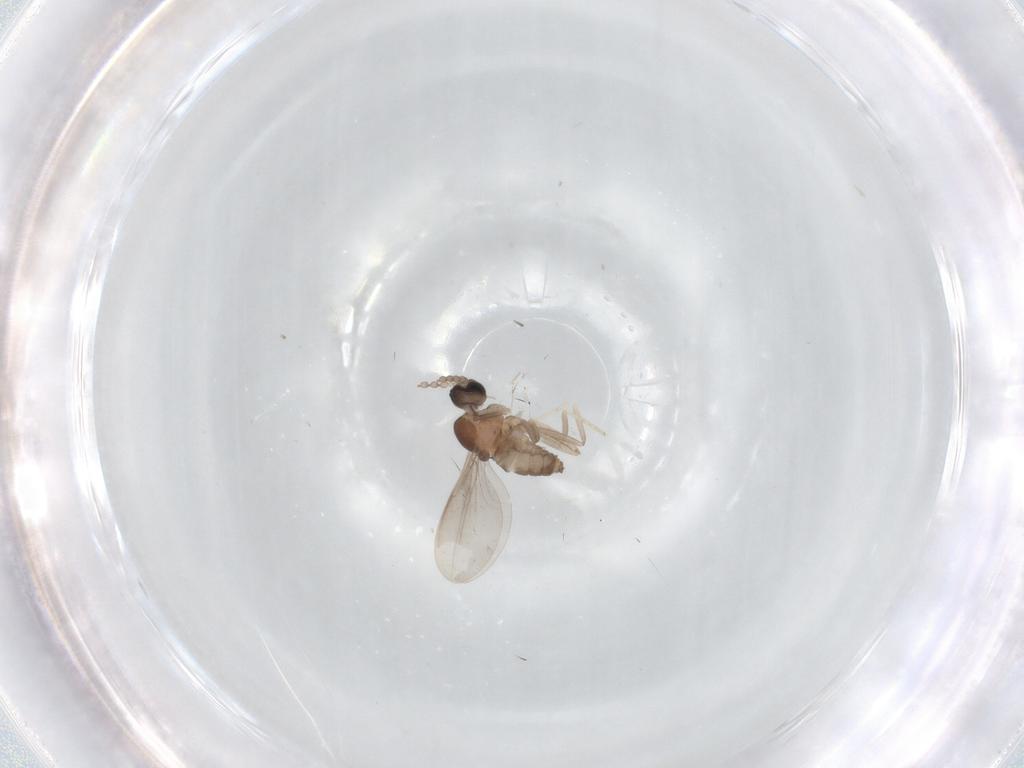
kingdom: Animalia
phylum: Arthropoda
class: Insecta
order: Diptera
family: Cecidomyiidae
